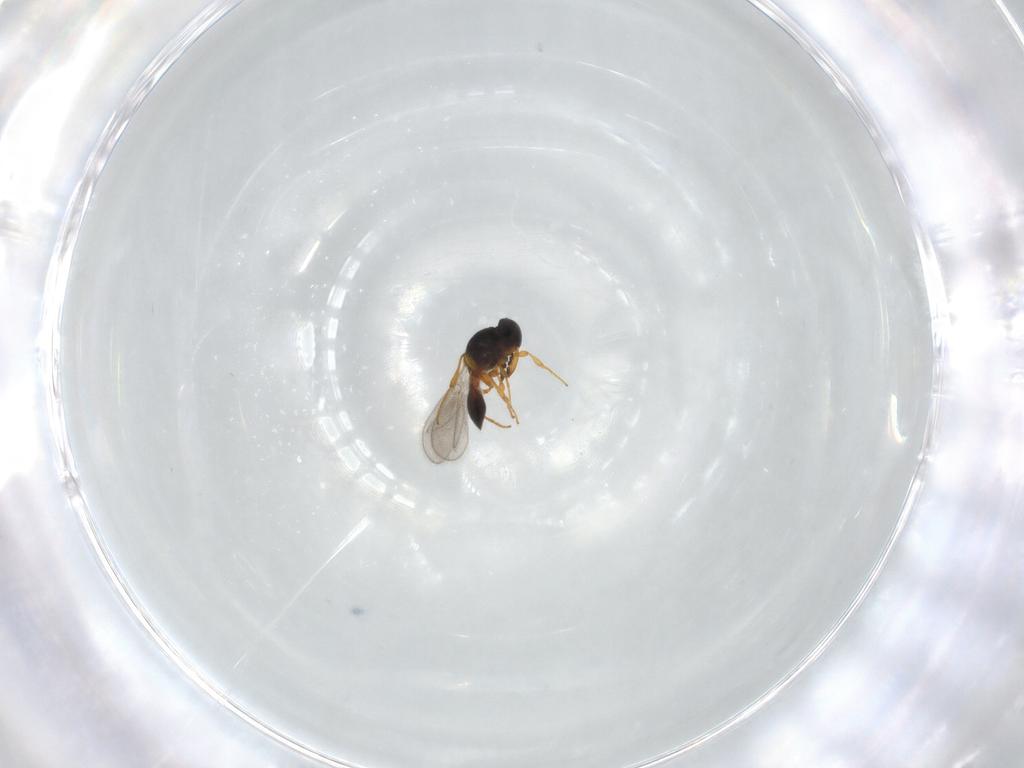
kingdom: Animalia
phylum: Arthropoda
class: Insecta
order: Hymenoptera
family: Platygastridae
